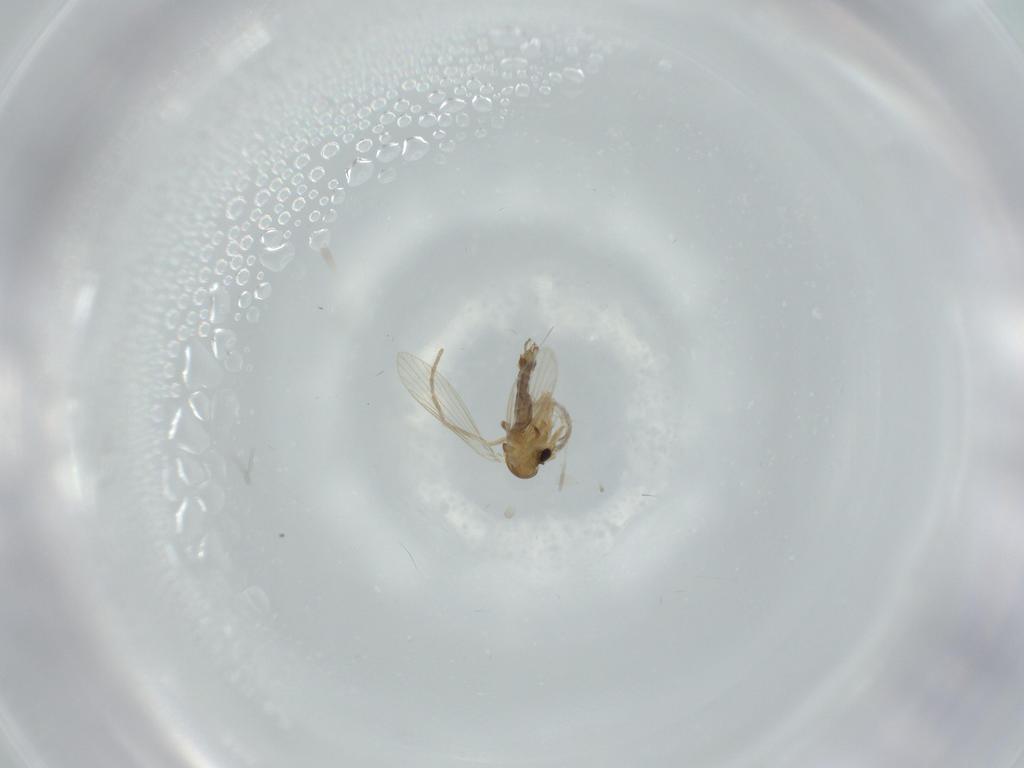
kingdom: Animalia
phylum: Arthropoda
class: Insecta
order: Diptera
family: Psychodidae
